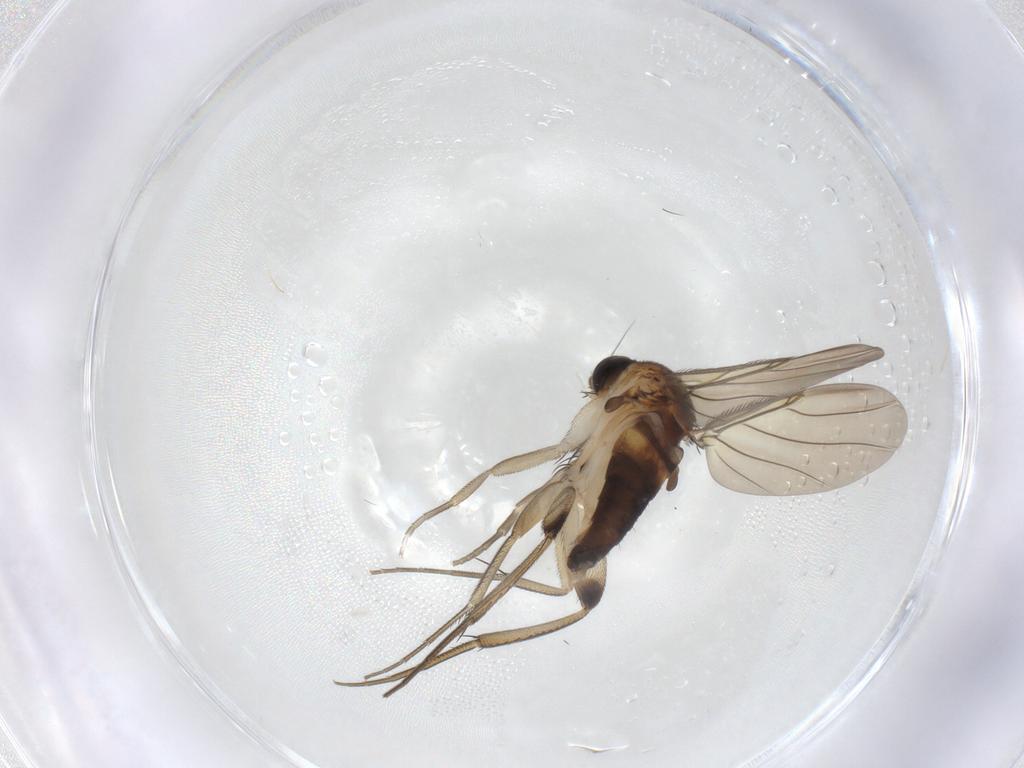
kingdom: Animalia
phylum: Arthropoda
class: Insecta
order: Diptera
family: Phoridae
